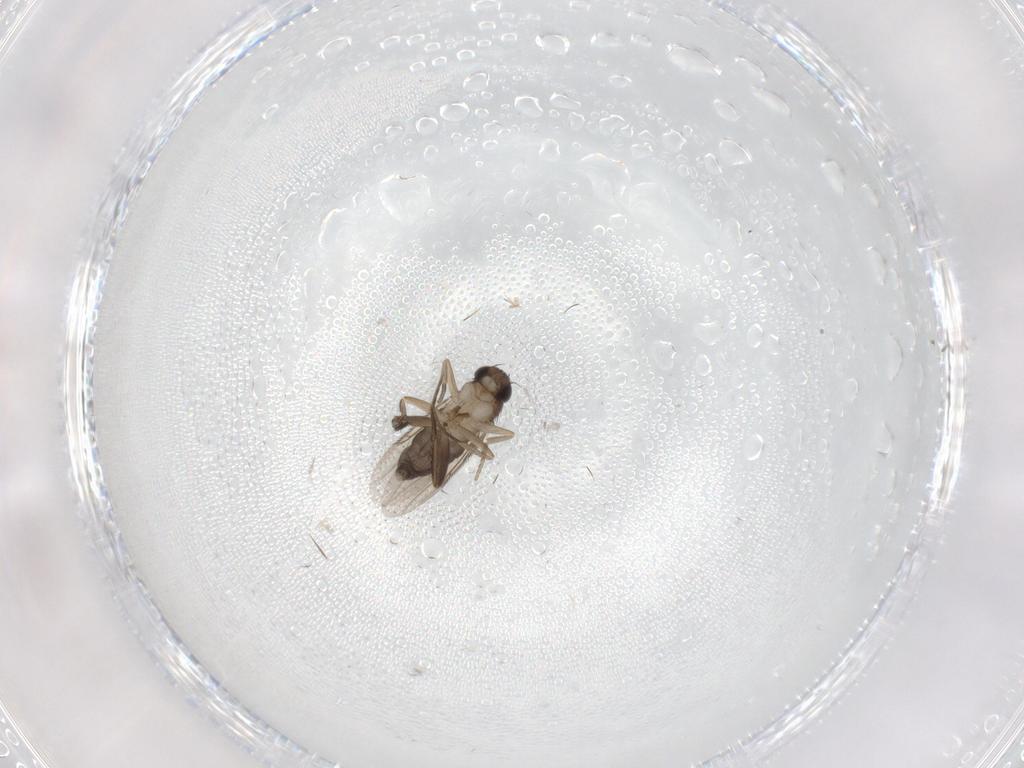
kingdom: Animalia
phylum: Arthropoda
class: Insecta
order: Diptera
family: Phoridae
